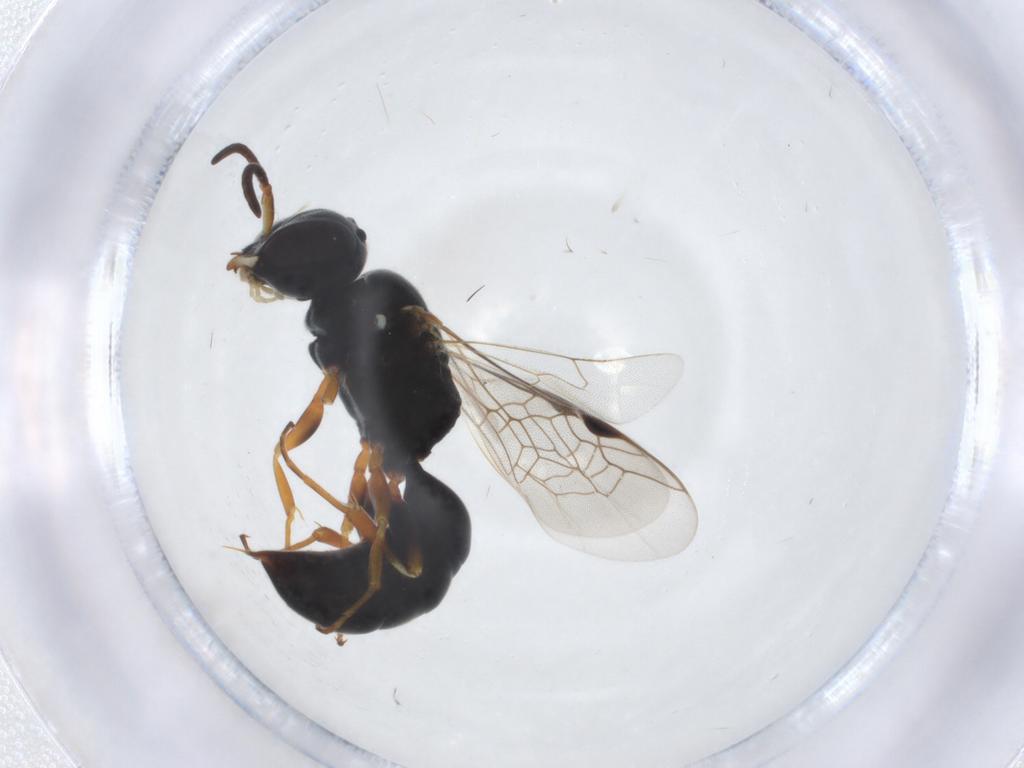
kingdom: Animalia
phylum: Arthropoda
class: Insecta
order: Hymenoptera
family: Pemphredonidae
